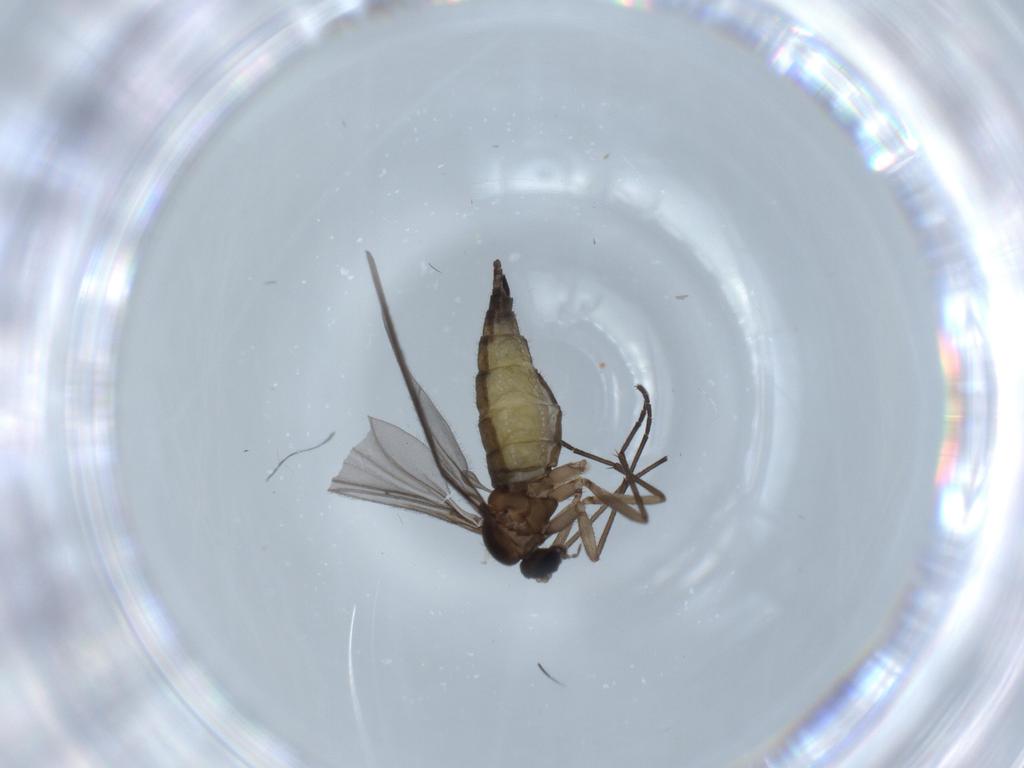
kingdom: Animalia
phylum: Arthropoda
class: Insecta
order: Diptera
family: Sciaridae
